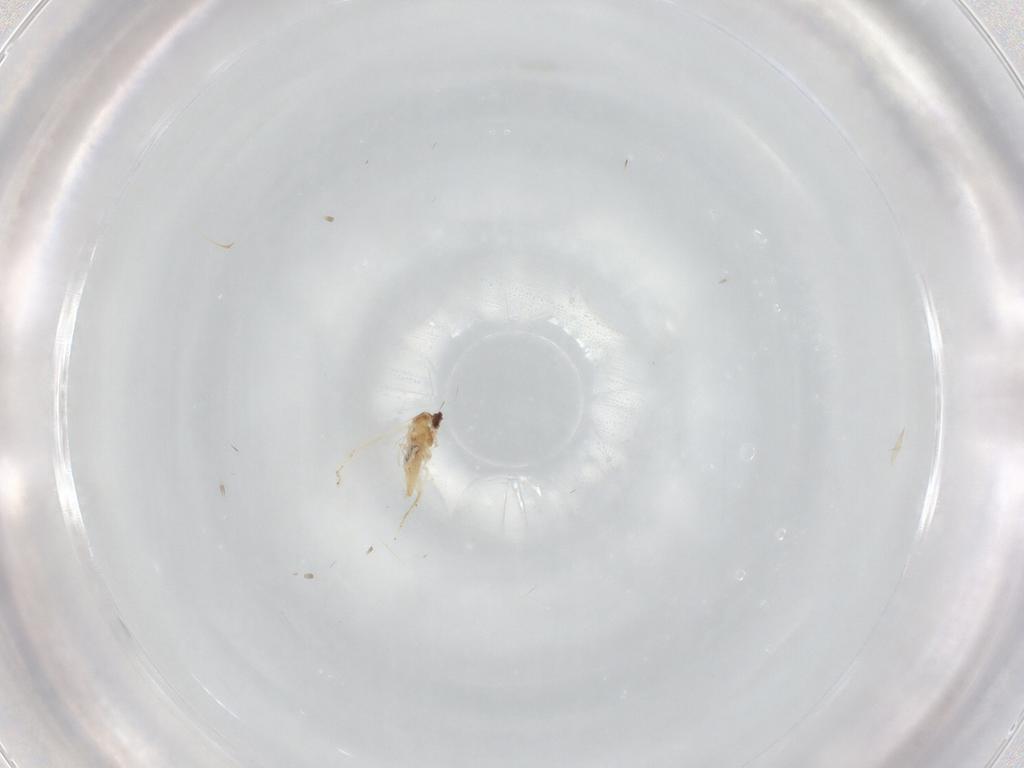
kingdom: Animalia
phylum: Arthropoda
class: Insecta
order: Diptera
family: Cecidomyiidae
